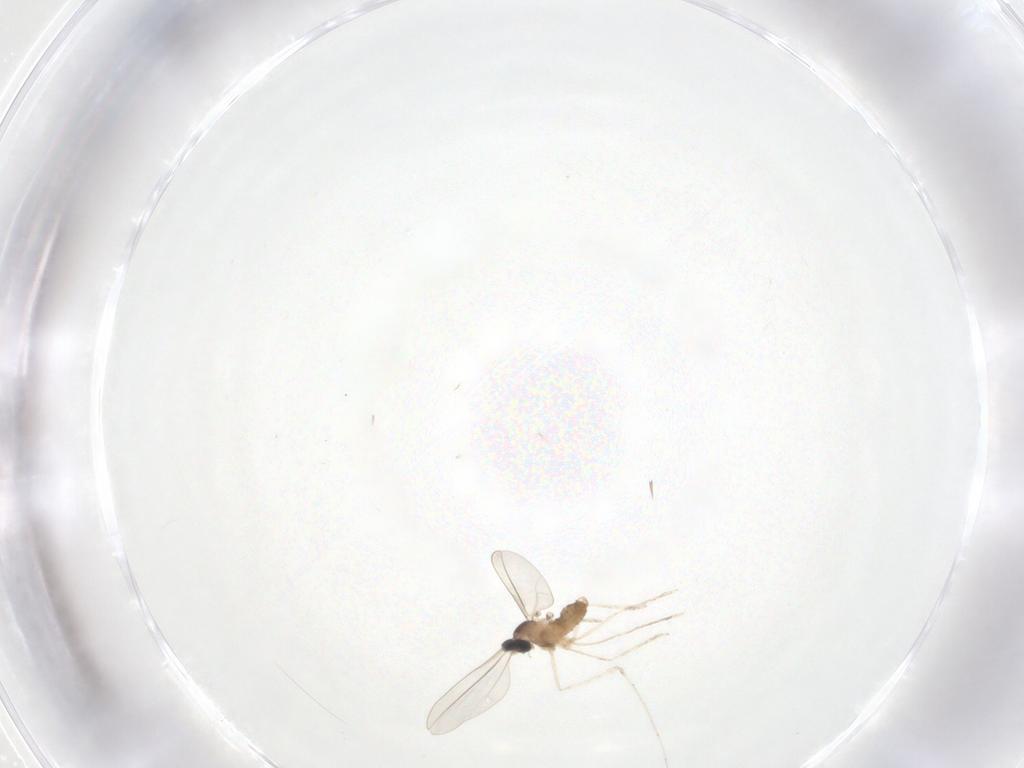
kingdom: Animalia
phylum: Arthropoda
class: Insecta
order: Diptera
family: Cecidomyiidae
